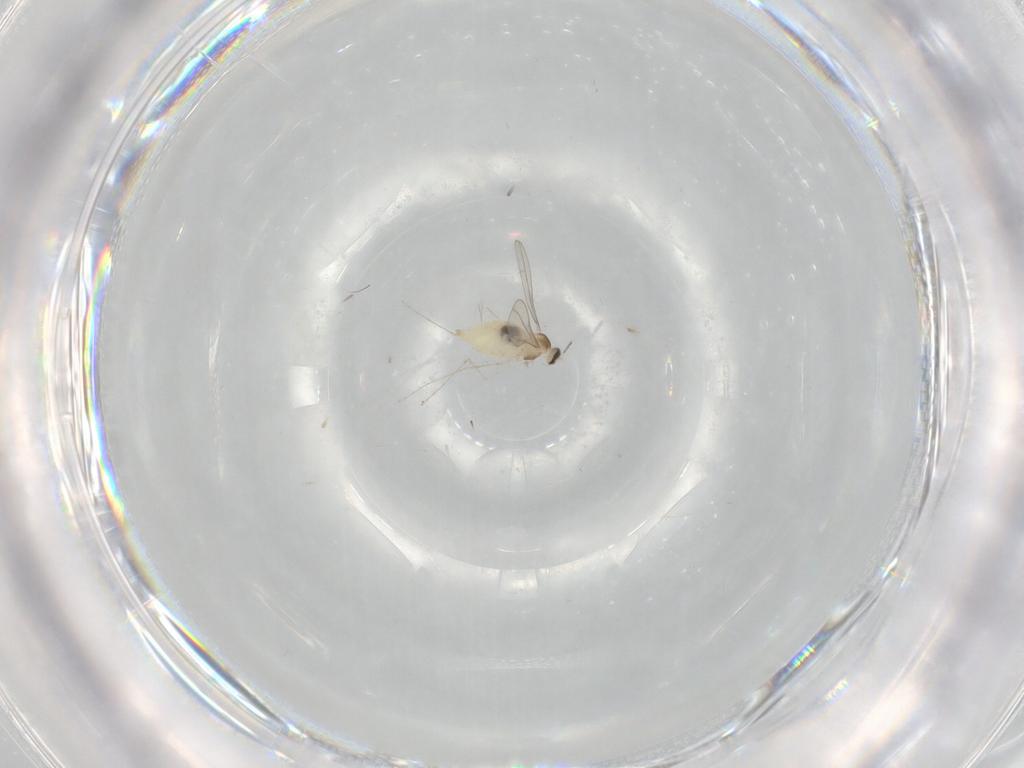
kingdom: Animalia
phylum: Arthropoda
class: Insecta
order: Diptera
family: Cecidomyiidae
